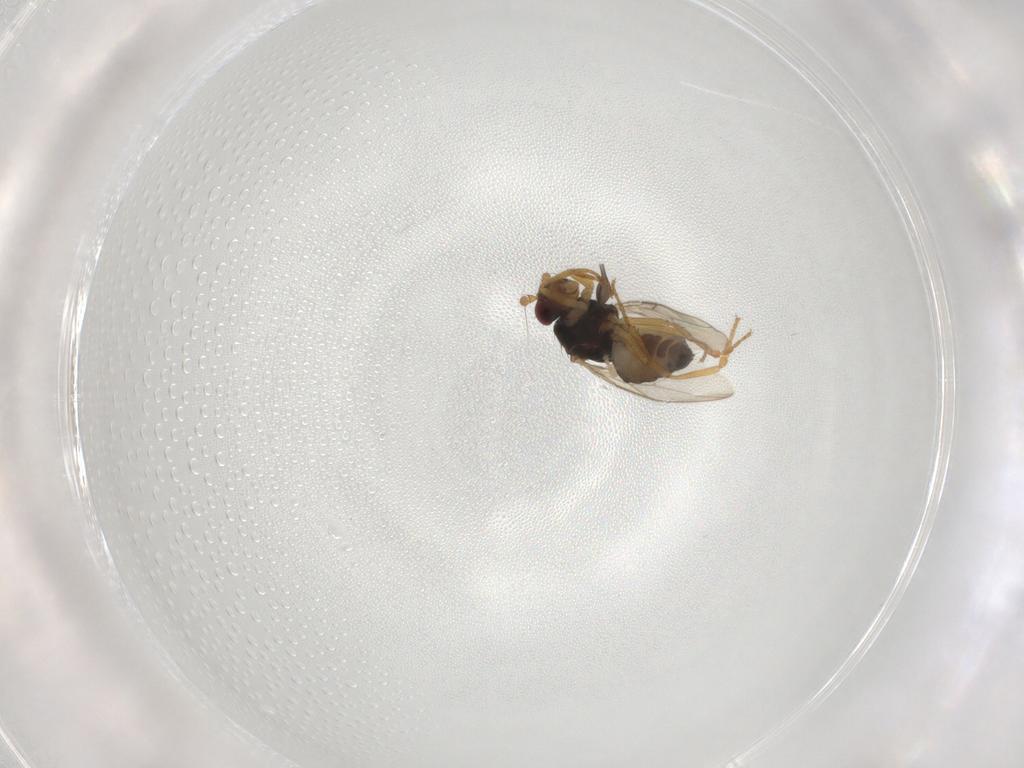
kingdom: Animalia
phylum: Arthropoda
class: Insecta
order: Diptera
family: Sphaeroceridae
